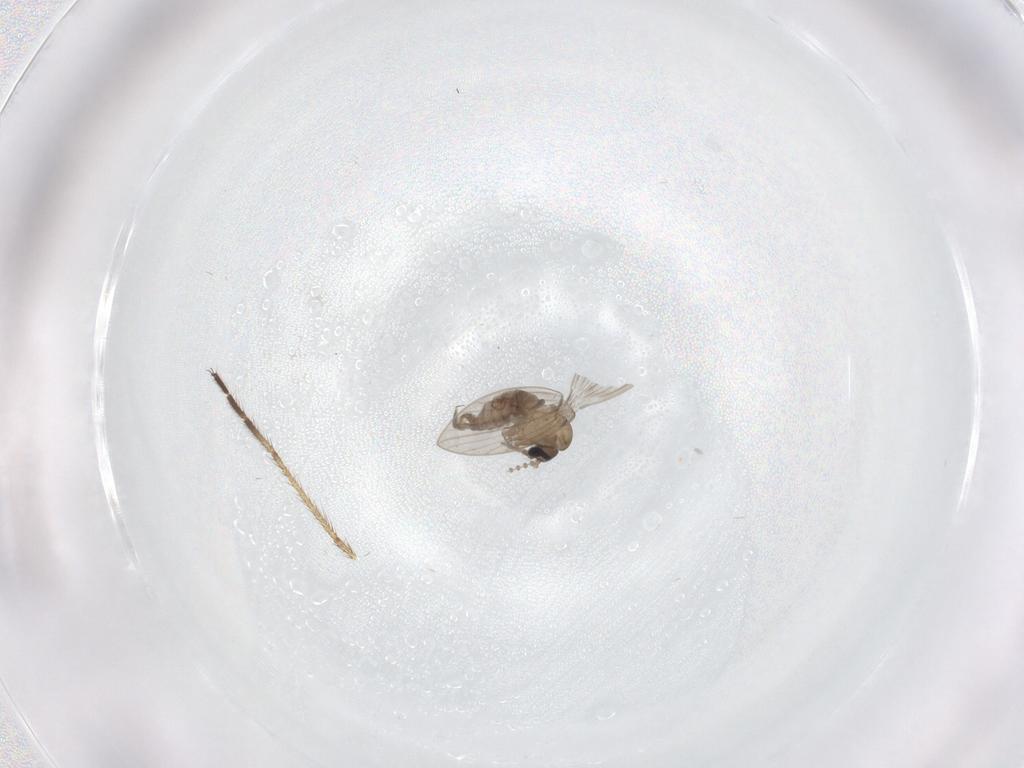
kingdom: Animalia
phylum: Arthropoda
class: Insecta
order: Diptera
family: Psychodidae
